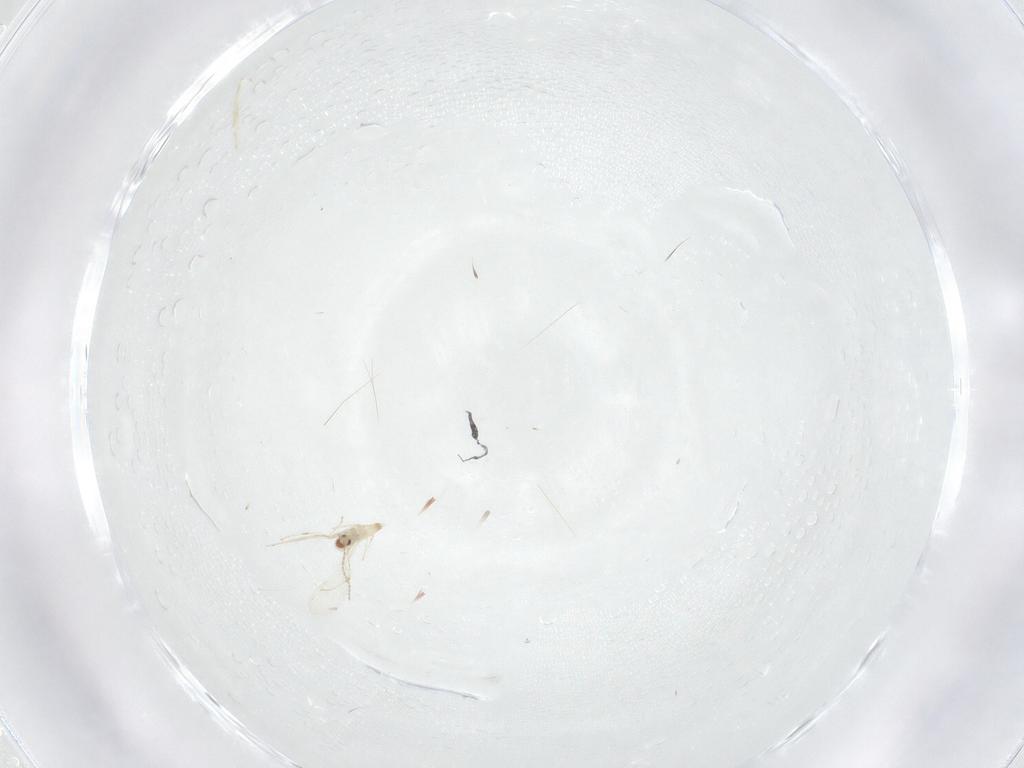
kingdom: Animalia
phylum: Arthropoda
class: Insecta
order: Diptera
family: Cecidomyiidae
